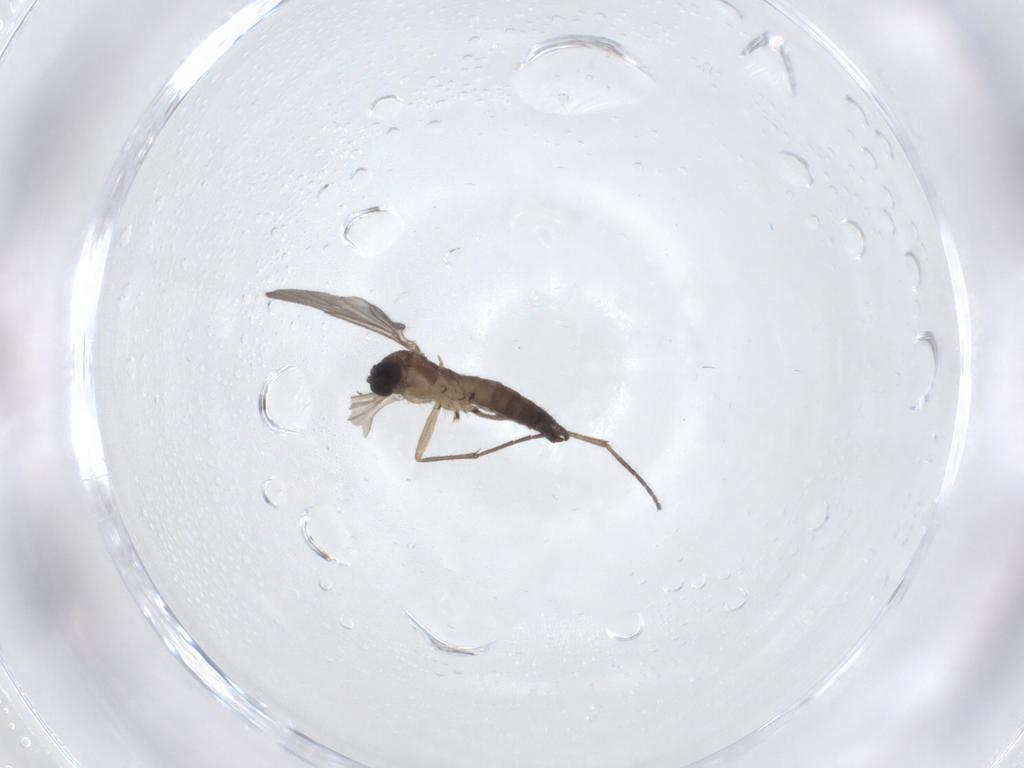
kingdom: Animalia
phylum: Arthropoda
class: Insecta
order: Diptera
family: Sciaridae
